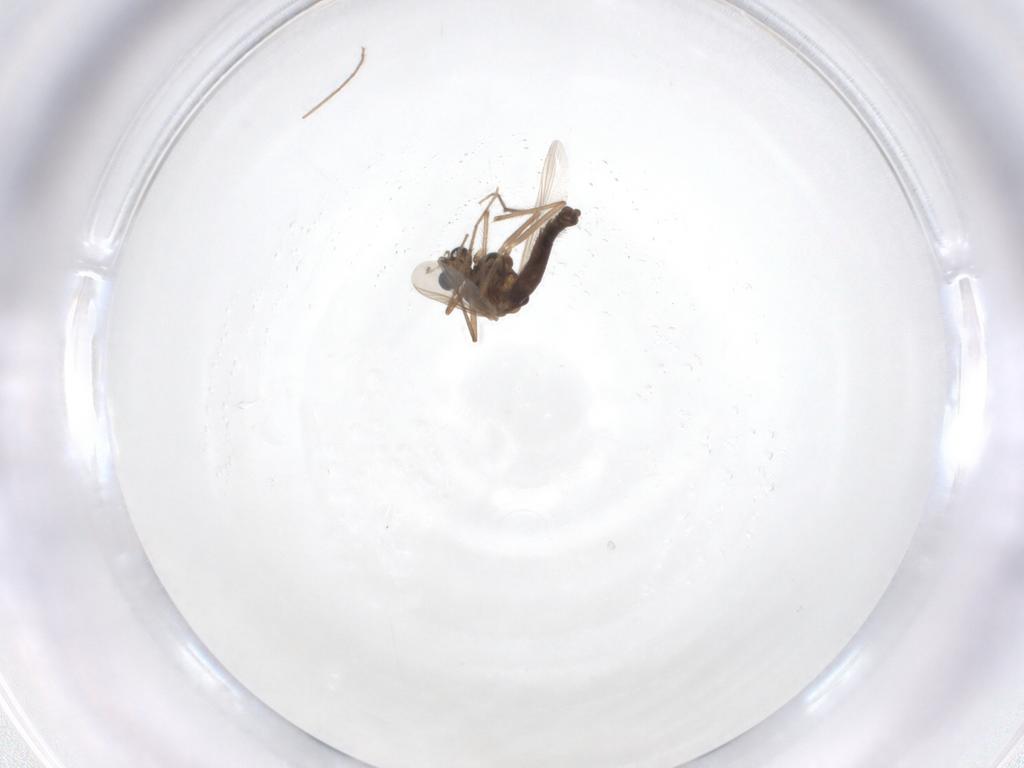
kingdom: Animalia
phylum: Arthropoda
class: Insecta
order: Diptera
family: Chironomidae
